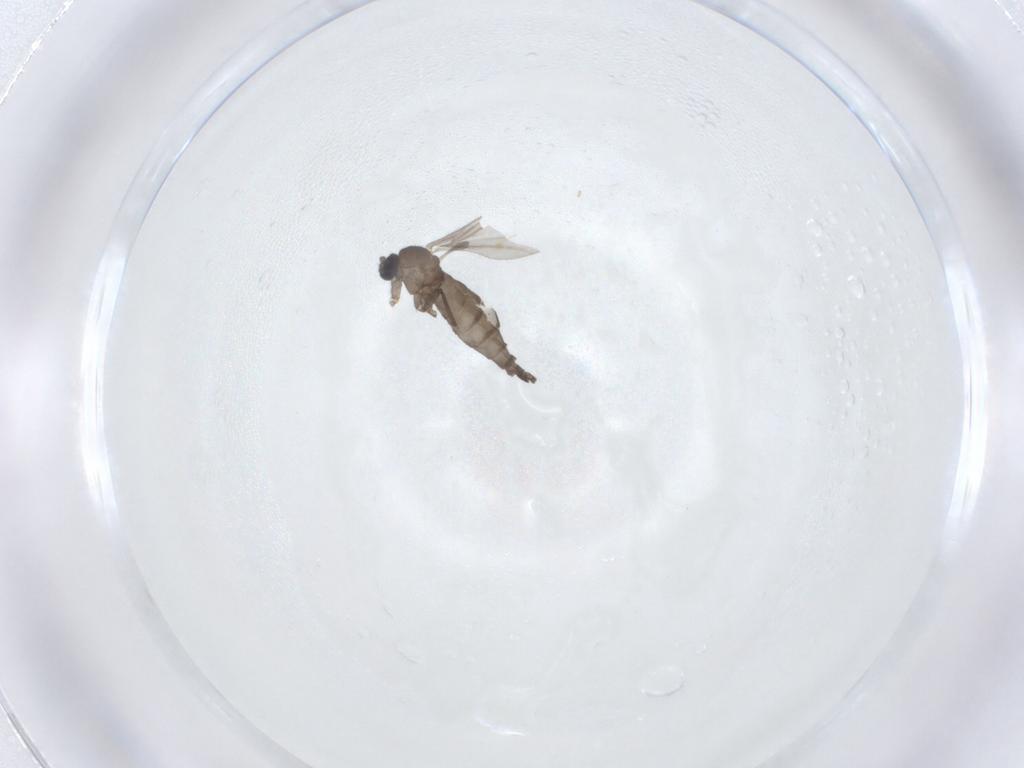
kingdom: Animalia
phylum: Arthropoda
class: Insecta
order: Diptera
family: Sciaridae
